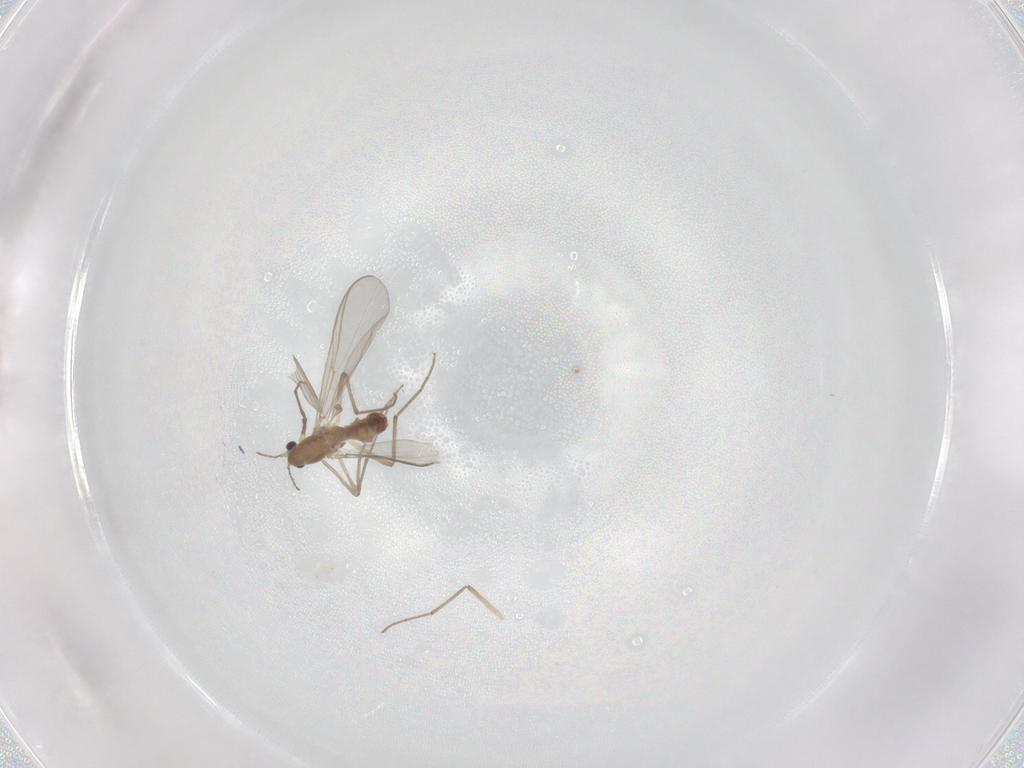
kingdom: Animalia
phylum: Arthropoda
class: Insecta
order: Diptera
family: Chironomidae
